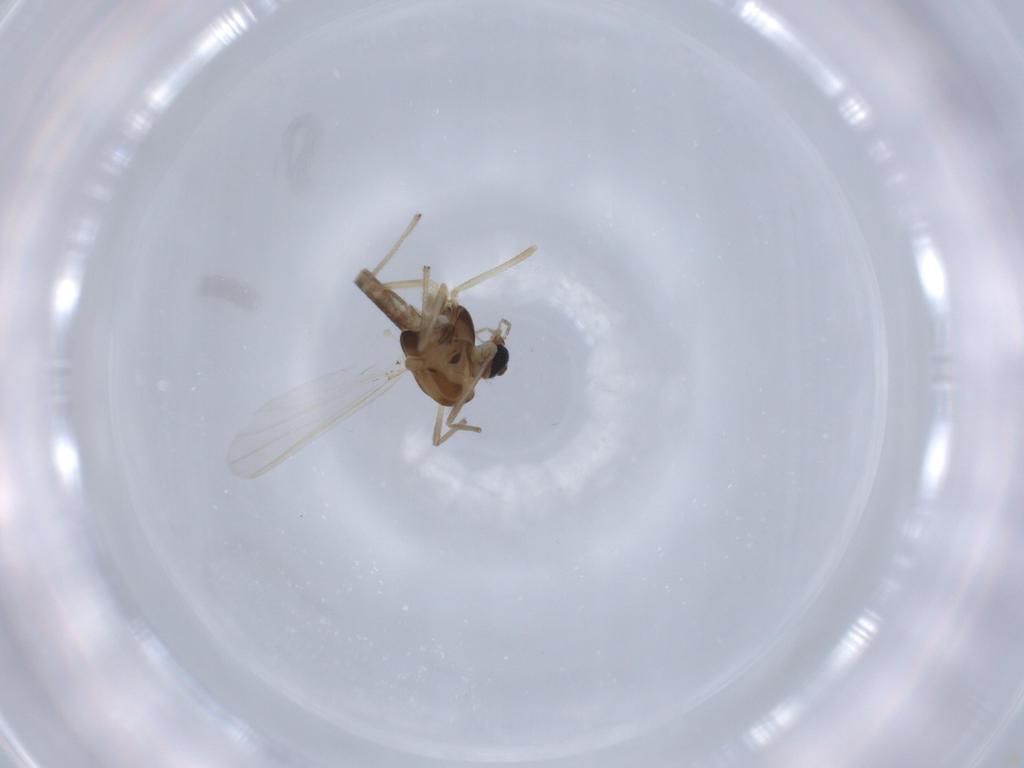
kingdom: Animalia
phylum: Arthropoda
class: Insecta
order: Diptera
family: Chironomidae
